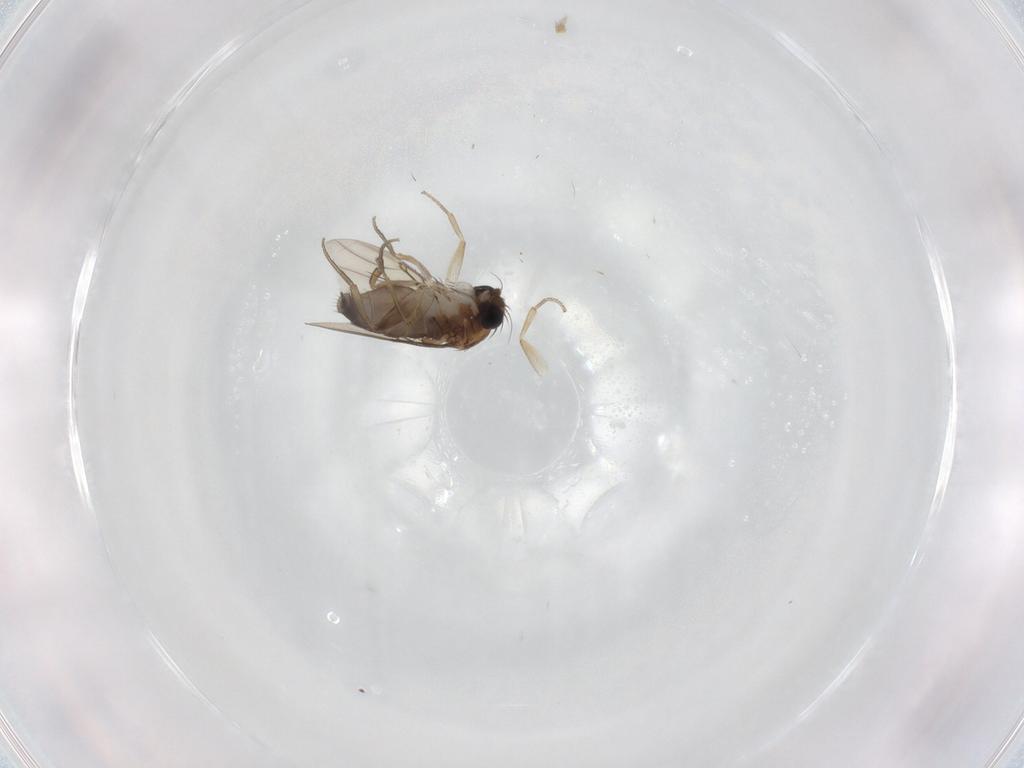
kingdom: Animalia
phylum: Arthropoda
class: Insecta
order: Diptera
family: Phoridae
